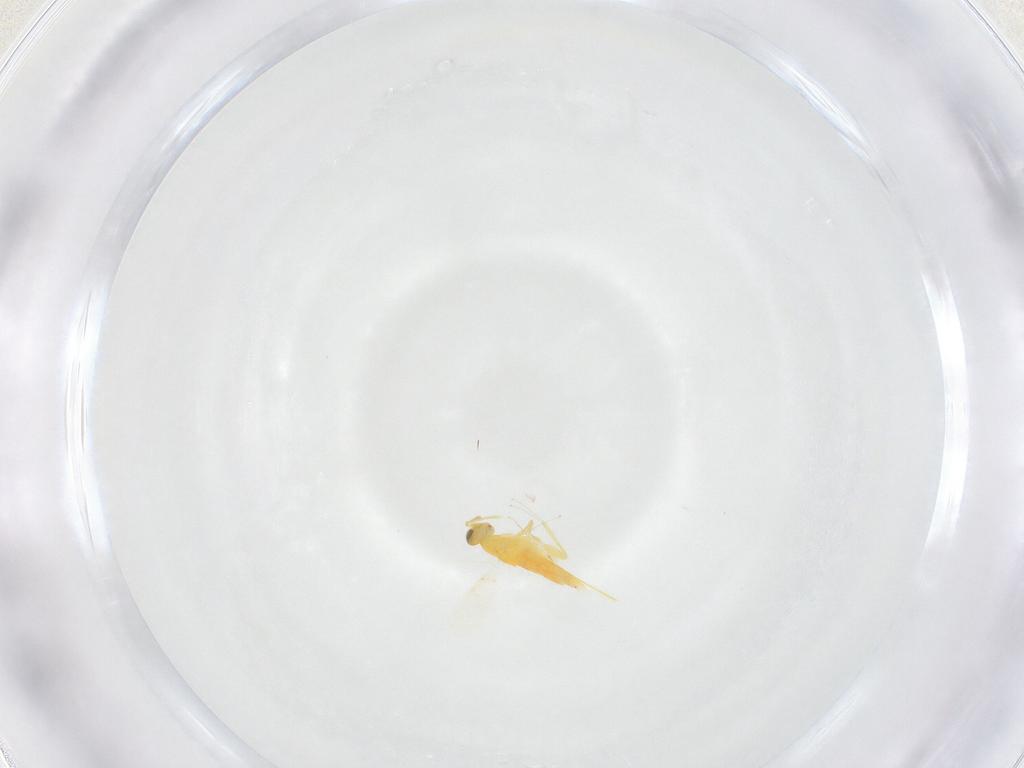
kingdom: Animalia
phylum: Arthropoda
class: Insecta
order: Hymenoptera
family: Aphelinidae
